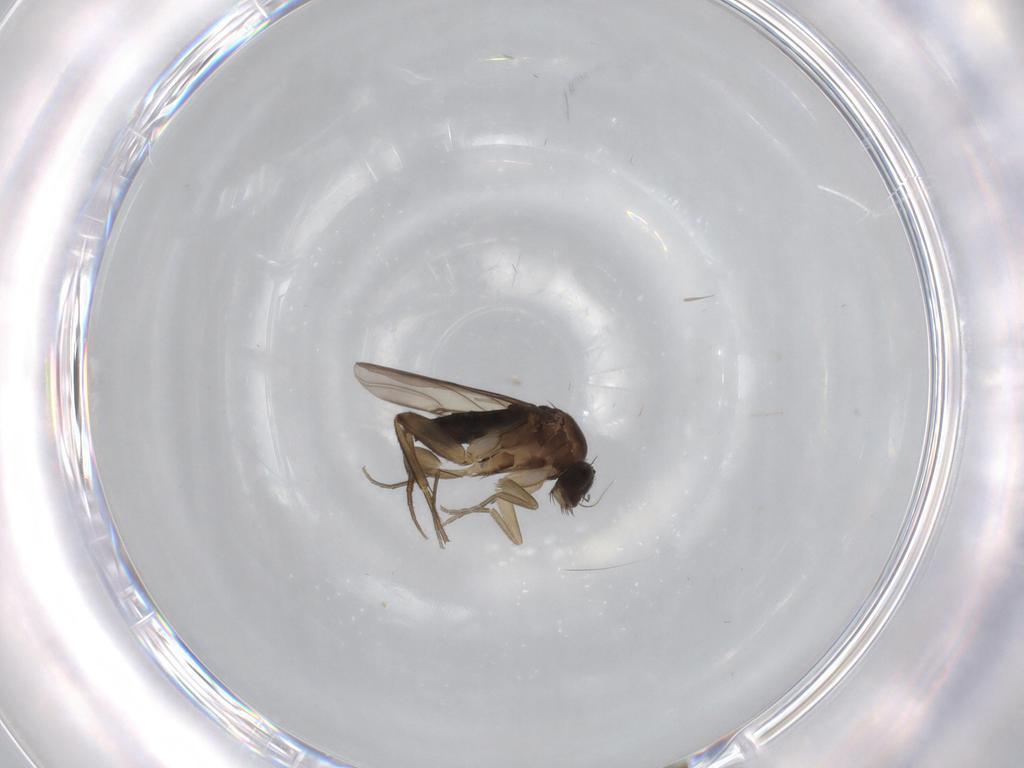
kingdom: Animalia
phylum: Arthropoda
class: Insecta
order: Diptera
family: Phoridae
